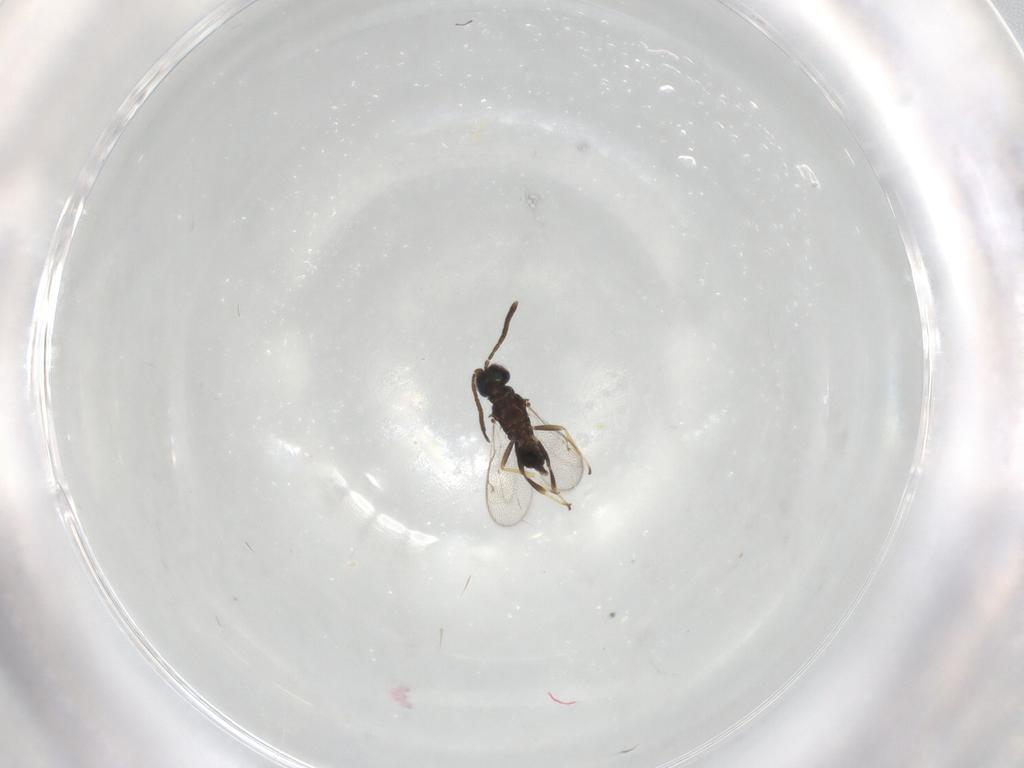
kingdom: Animalia
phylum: Arthropoda
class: Insecta
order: Hymenoptera
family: Eupelmidae
